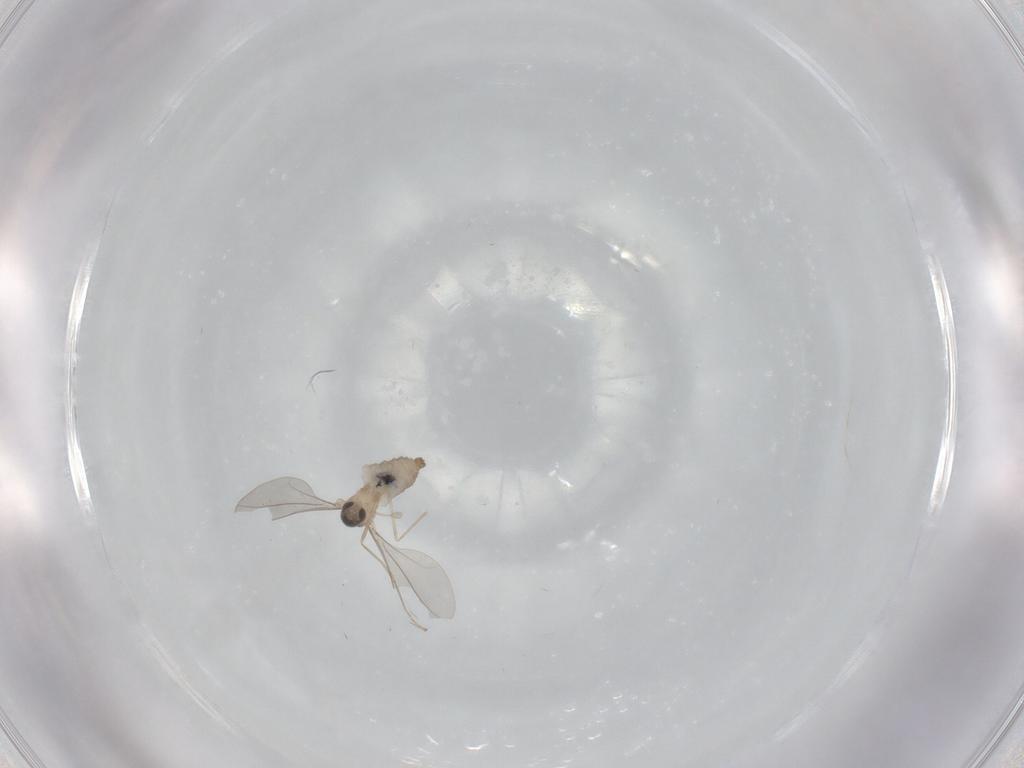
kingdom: Animalia
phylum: Arthropoda
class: Insecta
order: Diptera
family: Cecidomyiidae
